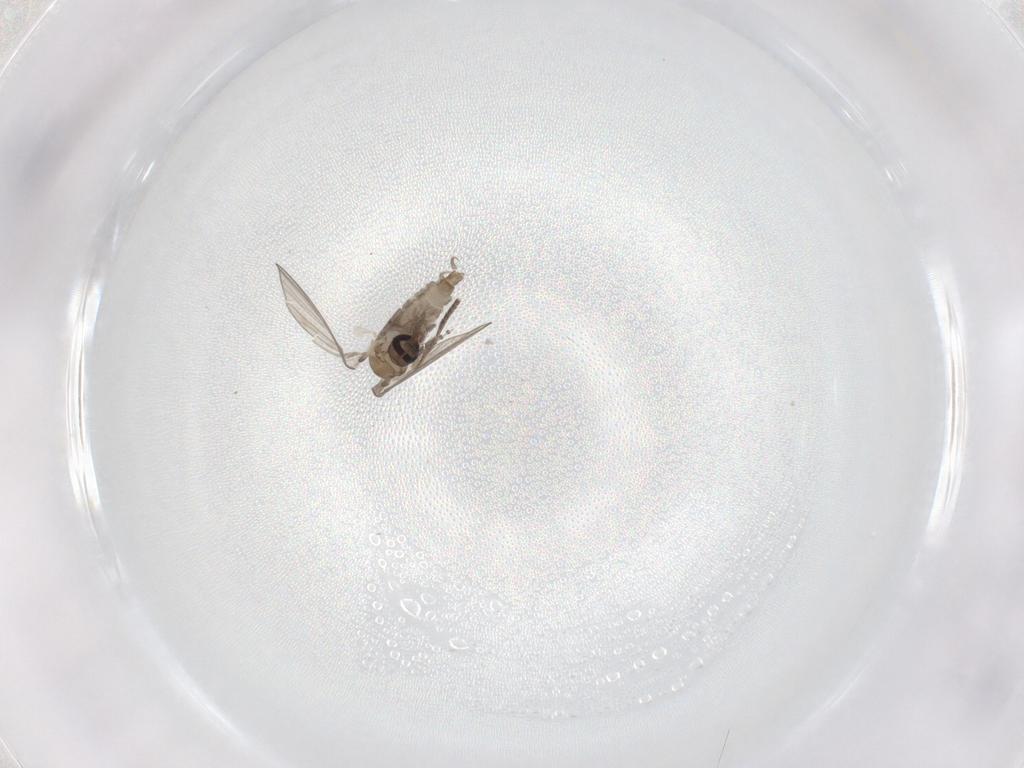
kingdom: Animalia
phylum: Arthropoda
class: Insecta
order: Diptera
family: Psychodidae
